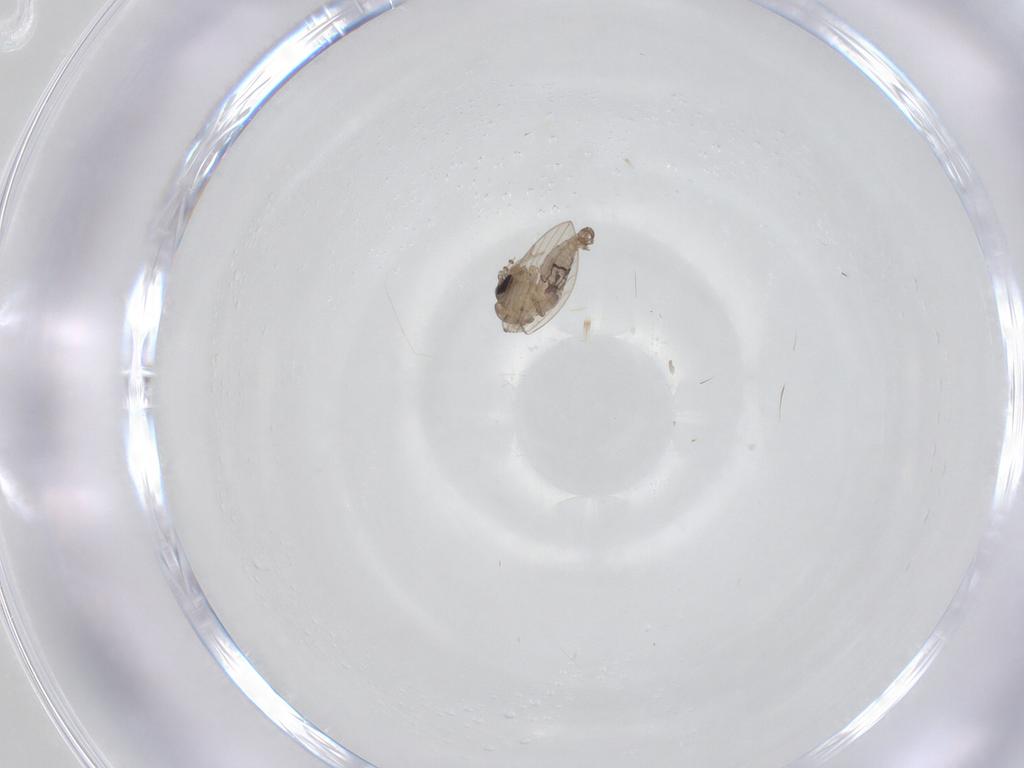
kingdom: Animalia
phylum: Arthropoda
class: Insecta
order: Diptera
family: Psychodidae
